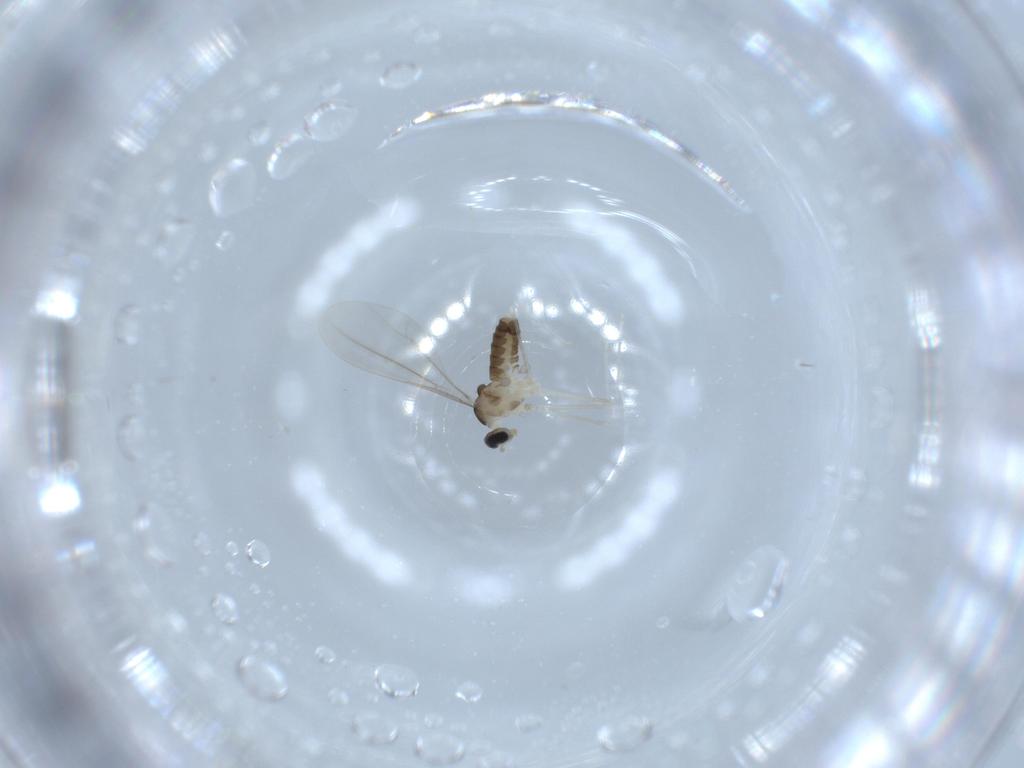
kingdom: Animalia
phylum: Arthropoda
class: Insecta
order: Diptera
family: Cecidomyiidae
